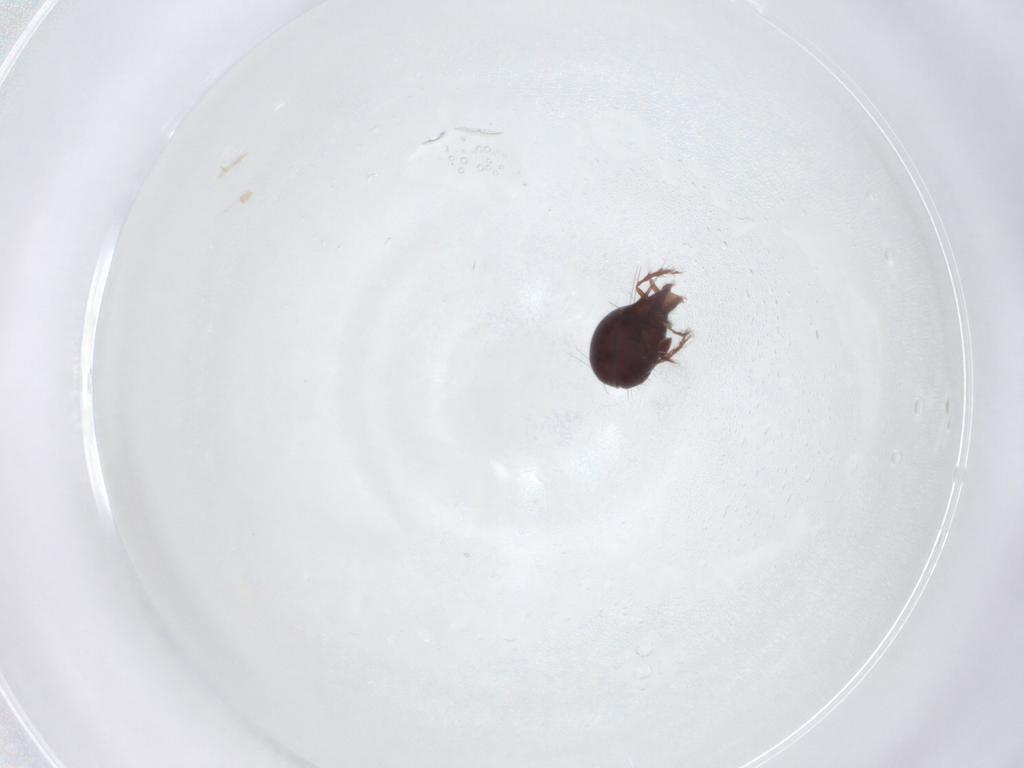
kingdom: Animalia
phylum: Arthropoda
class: Arachnida
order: Sarcoptiformes
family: Ceratoppiidae
